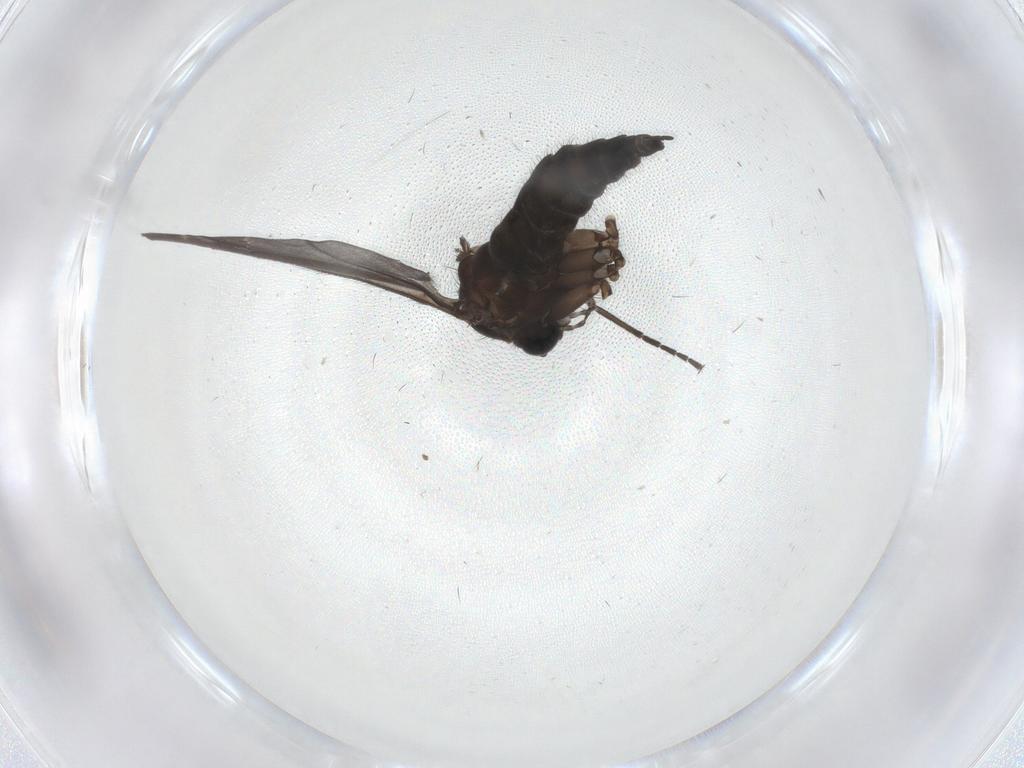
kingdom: Animalia
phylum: Arthropoda
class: Insecta
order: Diptera
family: Sciaridae
